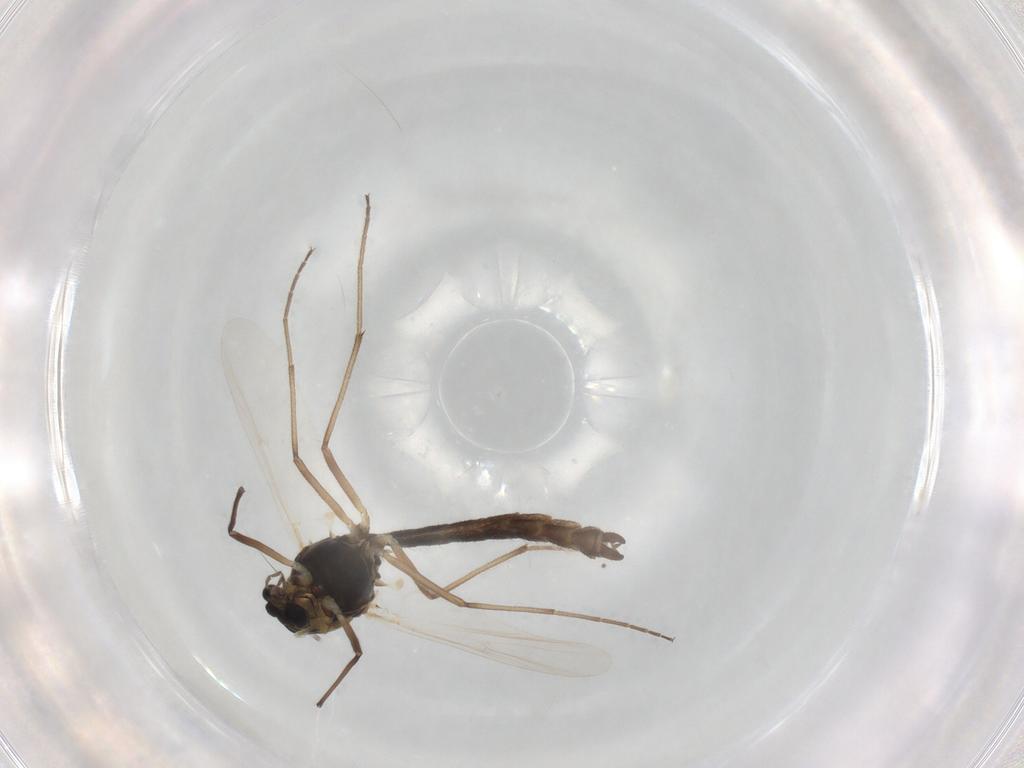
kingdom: Animalia
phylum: Arthropoda
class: Insecta
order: Diptera
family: Chironomidae
